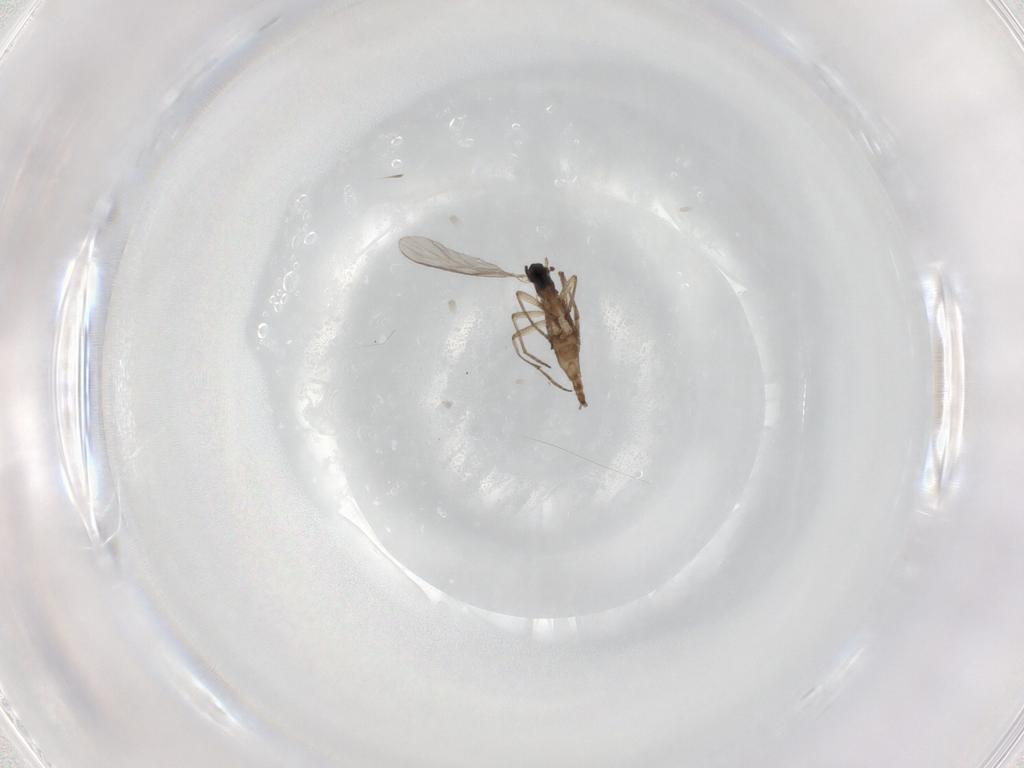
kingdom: Animalia
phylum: Arthropoda
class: Insecta
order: Diptera
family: Sciaridae
